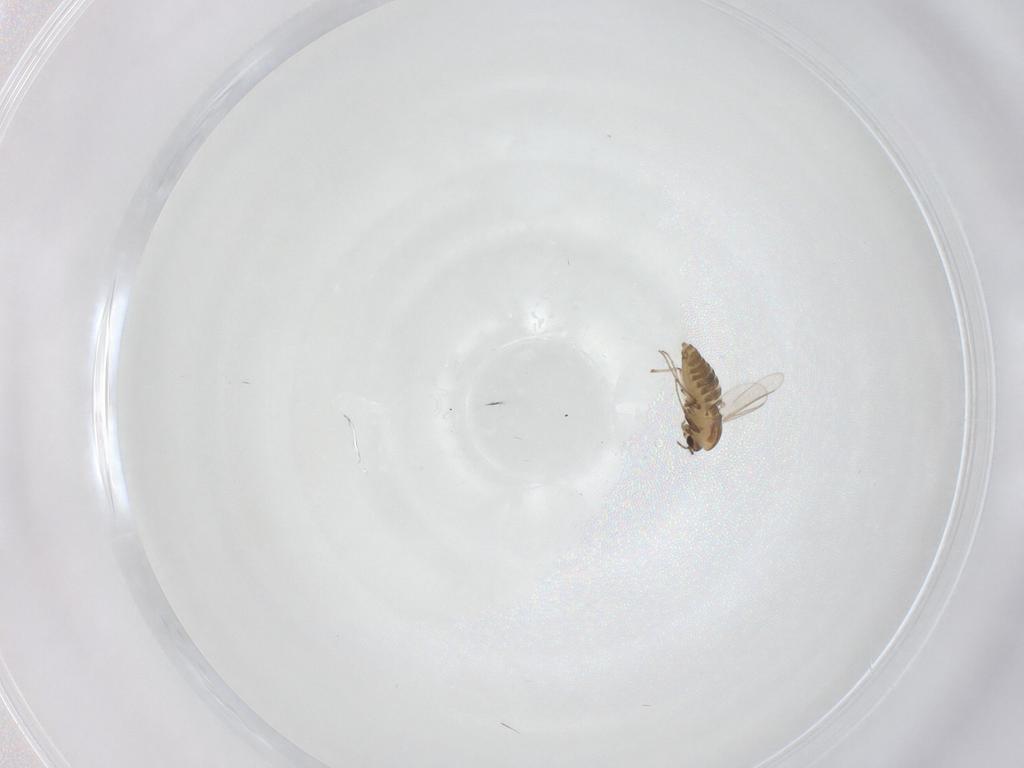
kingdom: Animalia
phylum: Arthropoda
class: Insecta
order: Diptera
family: Chironomidae
